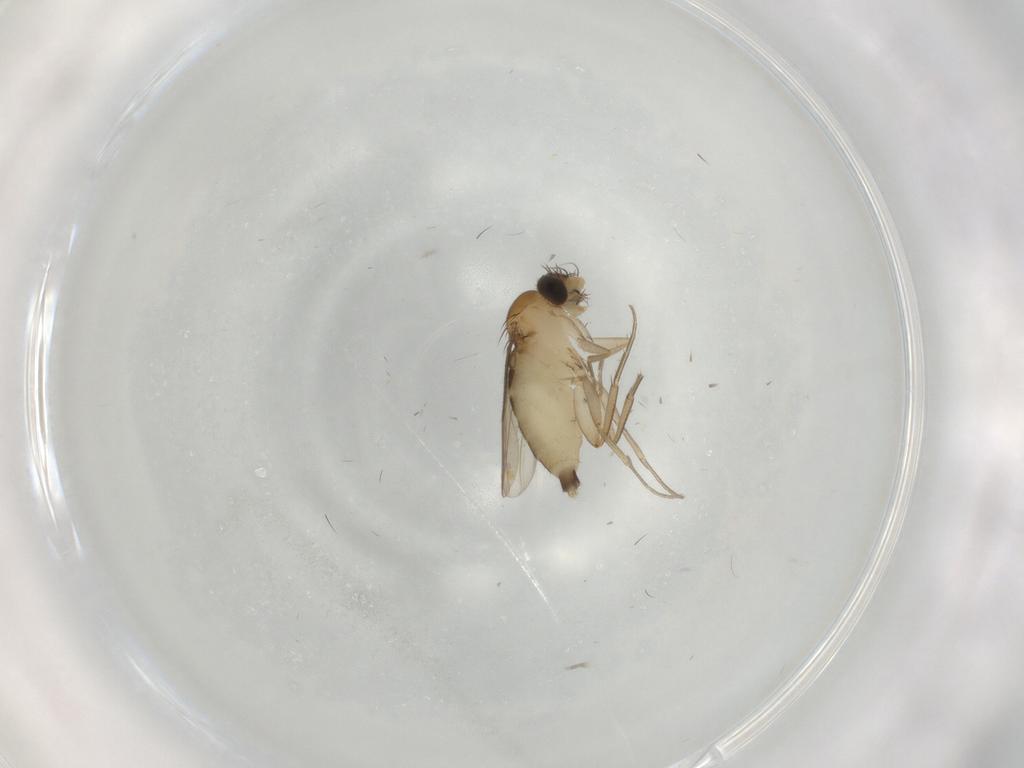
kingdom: Animalia
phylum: Arthropoda
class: Insecta
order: Diptera
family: Phoridae
